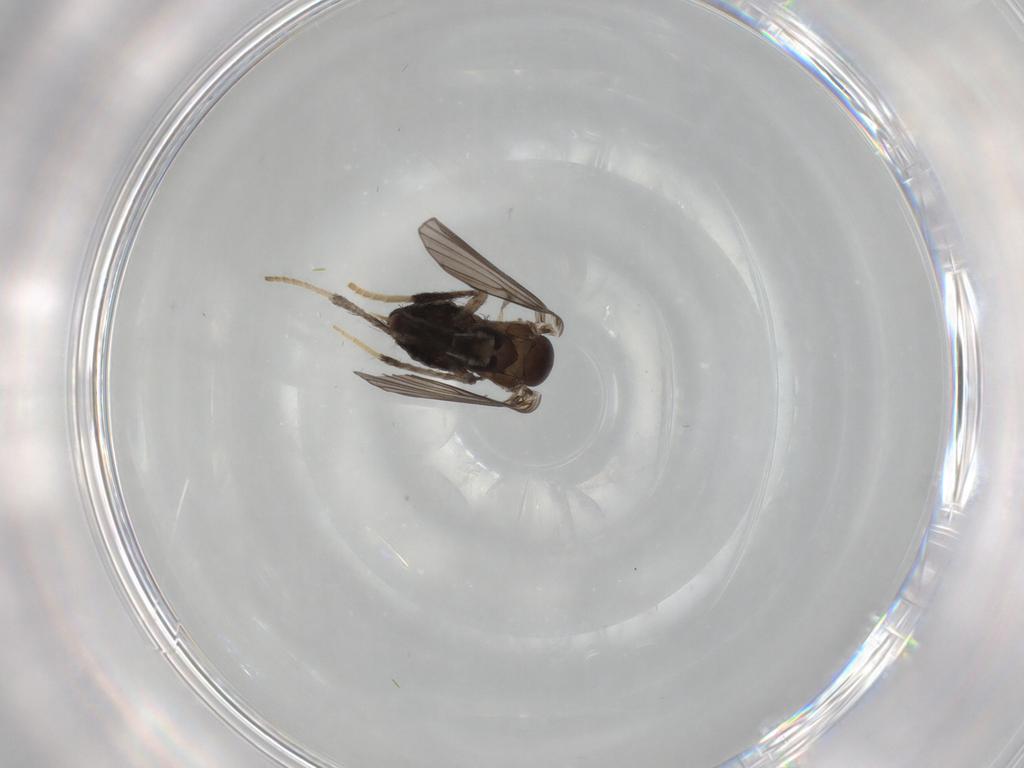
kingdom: Animalia
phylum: Arthropoda
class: Insecta
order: Diptera
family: Psychodidae
